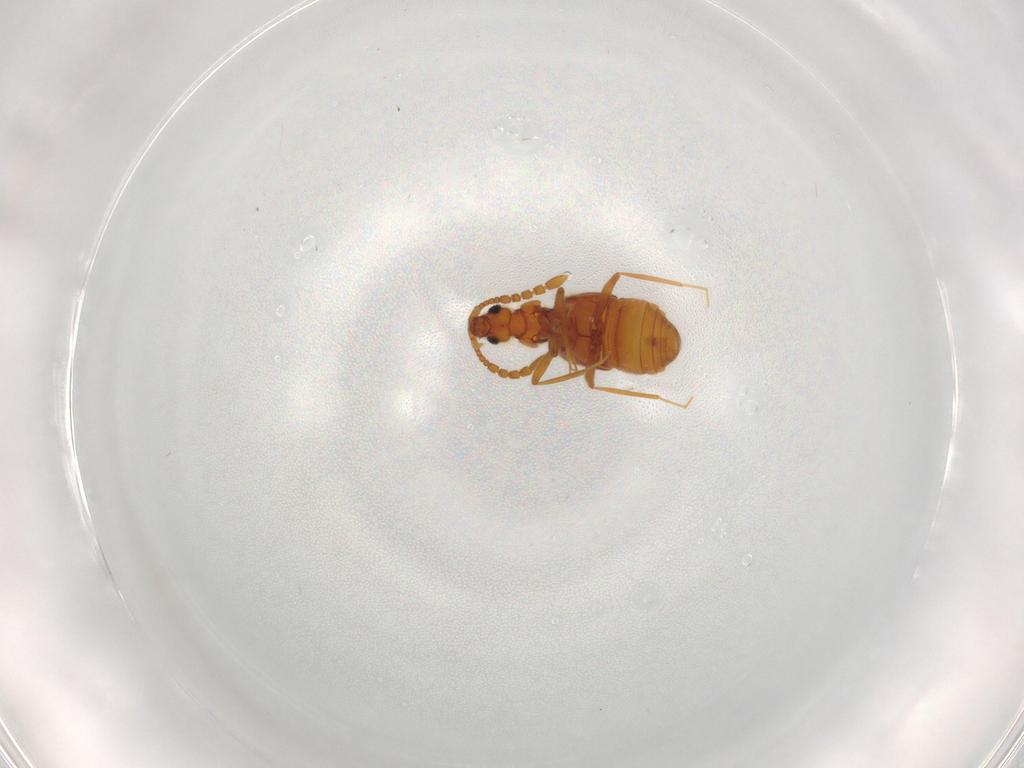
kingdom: Animalia
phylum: Arthropoda
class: Insecta
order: Coleoptera
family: Staphylinidae
